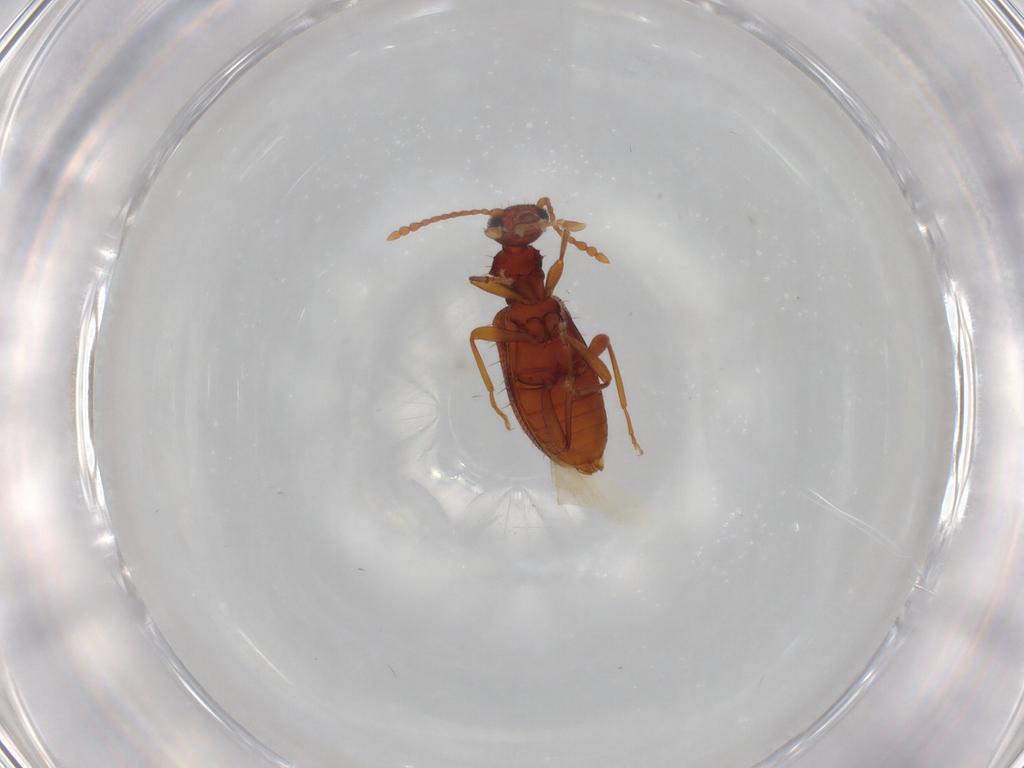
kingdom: Animalia
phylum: Arthropoda
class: Insecta
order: Coleoptera
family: Anthicidae
